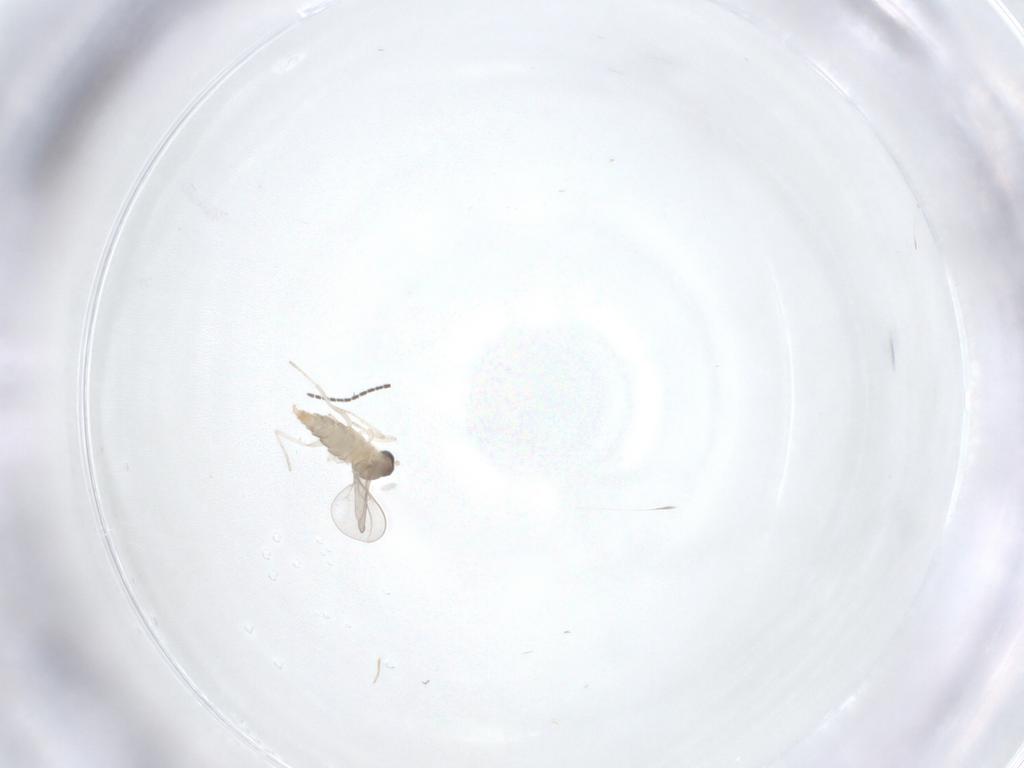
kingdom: Animalia
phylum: Arthropoda
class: Insecta
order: Diptera
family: Cecidomyiidae
